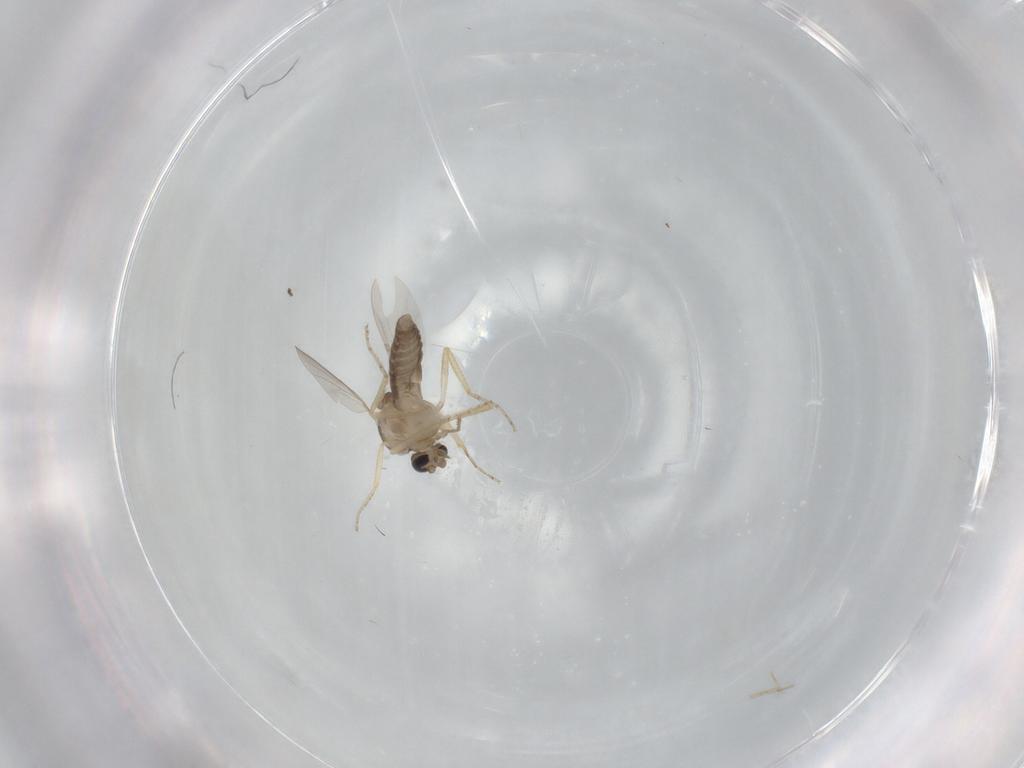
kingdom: Animalia
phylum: Arthropoda
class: Insecta
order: Diptera
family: Ceratopogonidae
